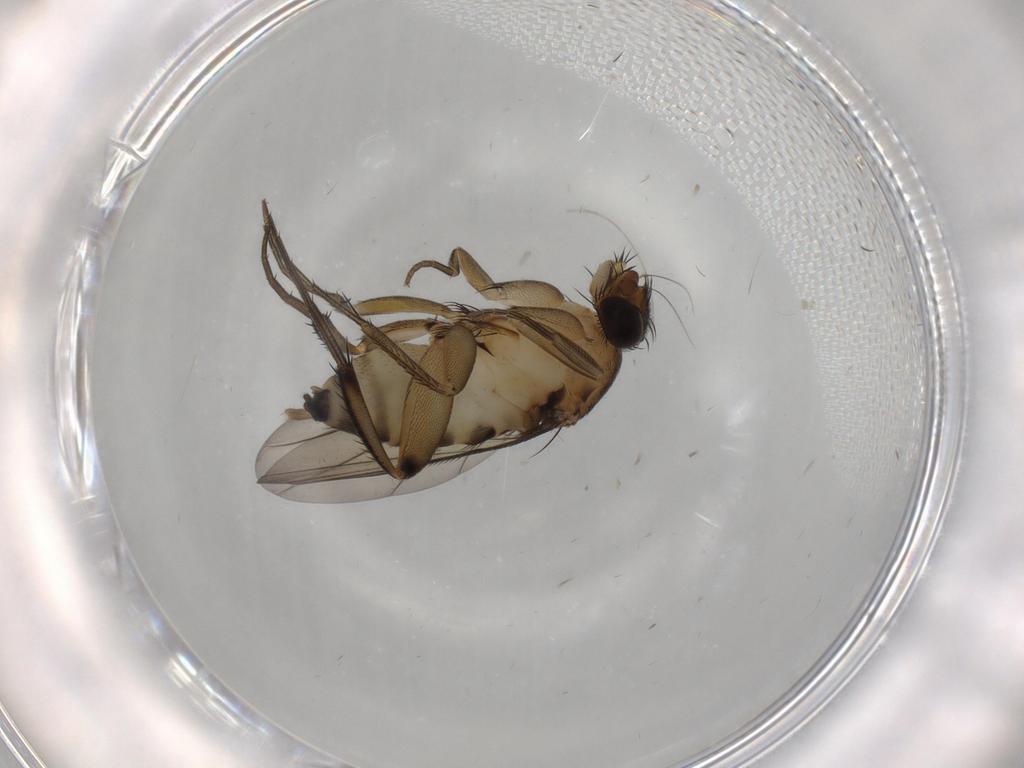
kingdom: Animalia
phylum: Arthropoda
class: Insecta
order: Diptera
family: Phoridae
